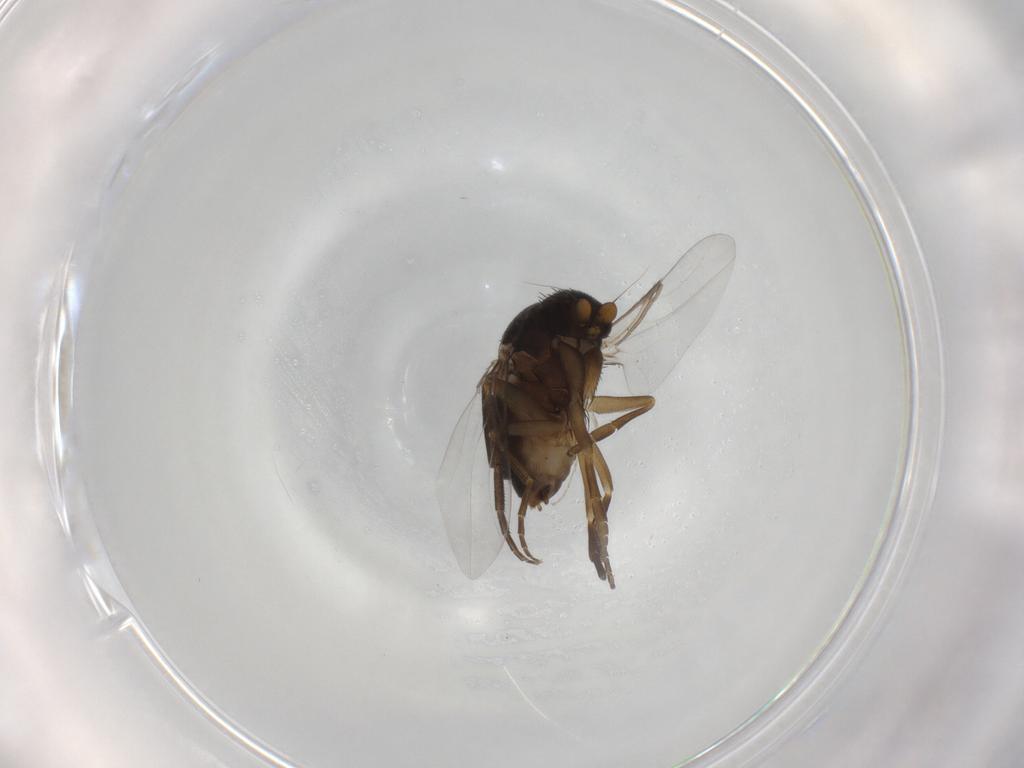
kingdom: Animalia
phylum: Arthropoda
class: Insecta
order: Diptera
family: Phoridae
